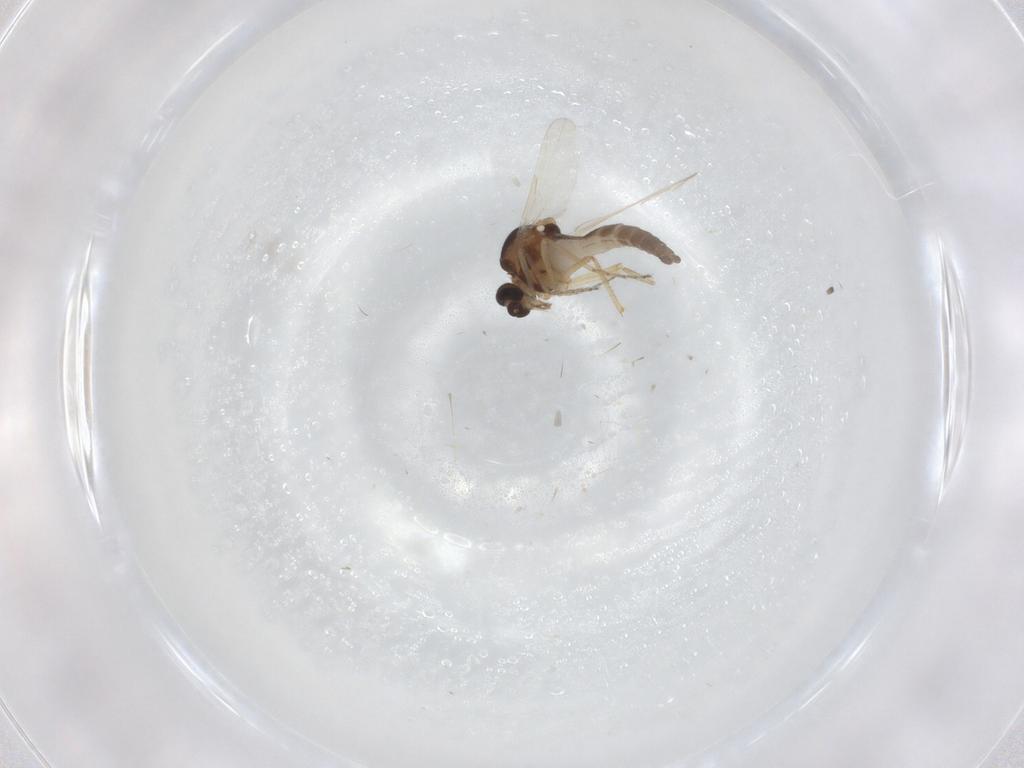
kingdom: Animalia
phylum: Arthropoda
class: Insecta
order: Diptera
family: Ceratopogonidae
